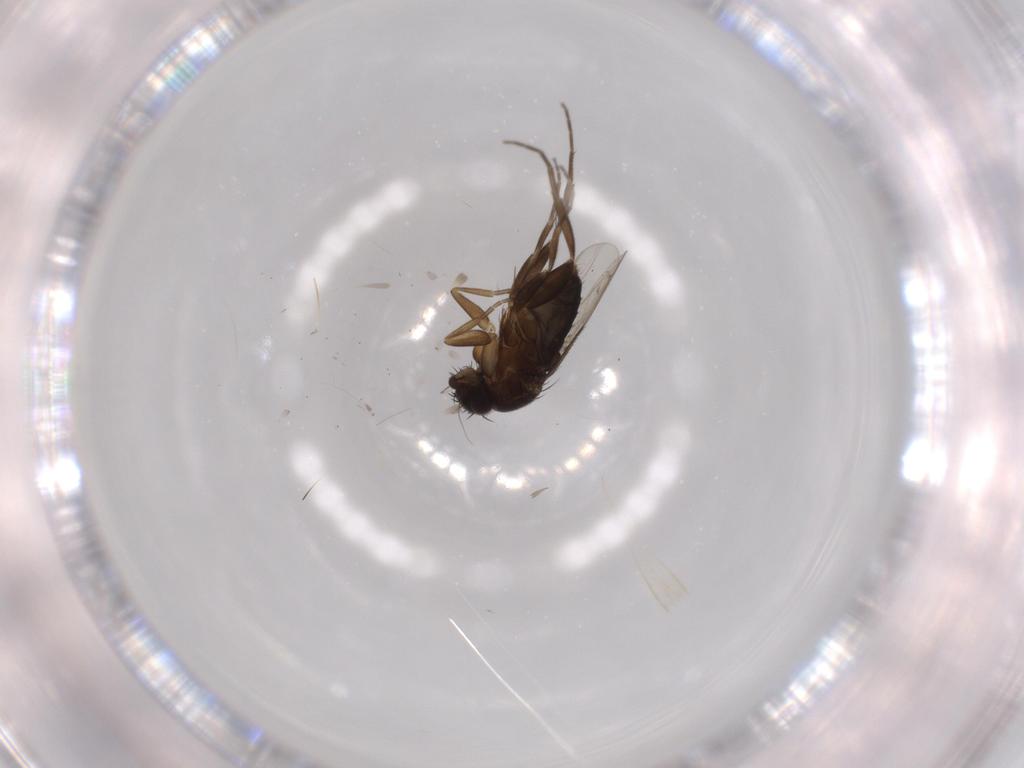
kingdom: Animalia
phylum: Arthropoda
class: Insecta
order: Diptera
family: Phoridae
